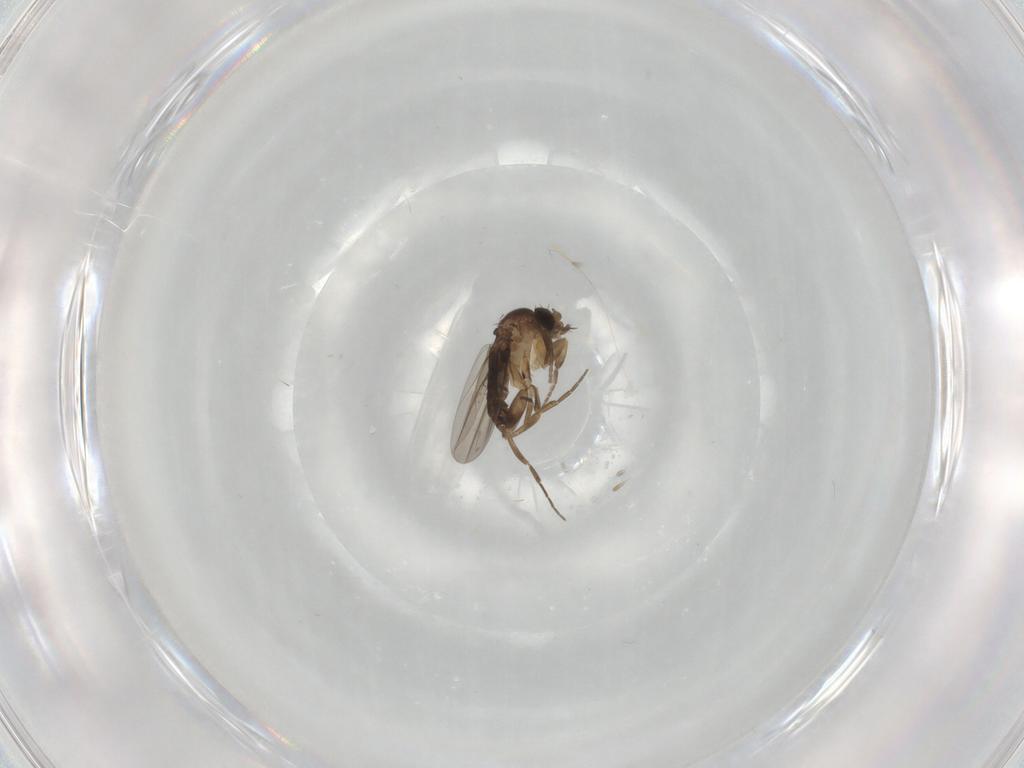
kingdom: Animalia
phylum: Arthropoda
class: Insecta
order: Diptera
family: Phoridae
